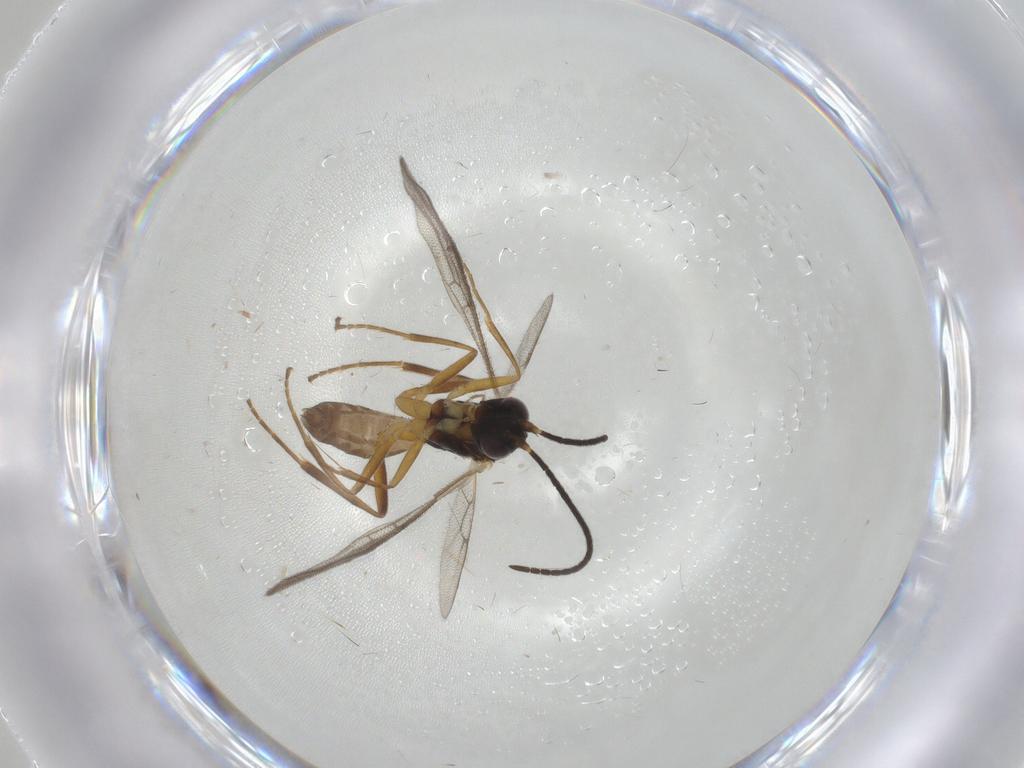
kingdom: Animalia
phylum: Arthropoda
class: Insecta
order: Hymenoptera
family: Ichneumonidae
